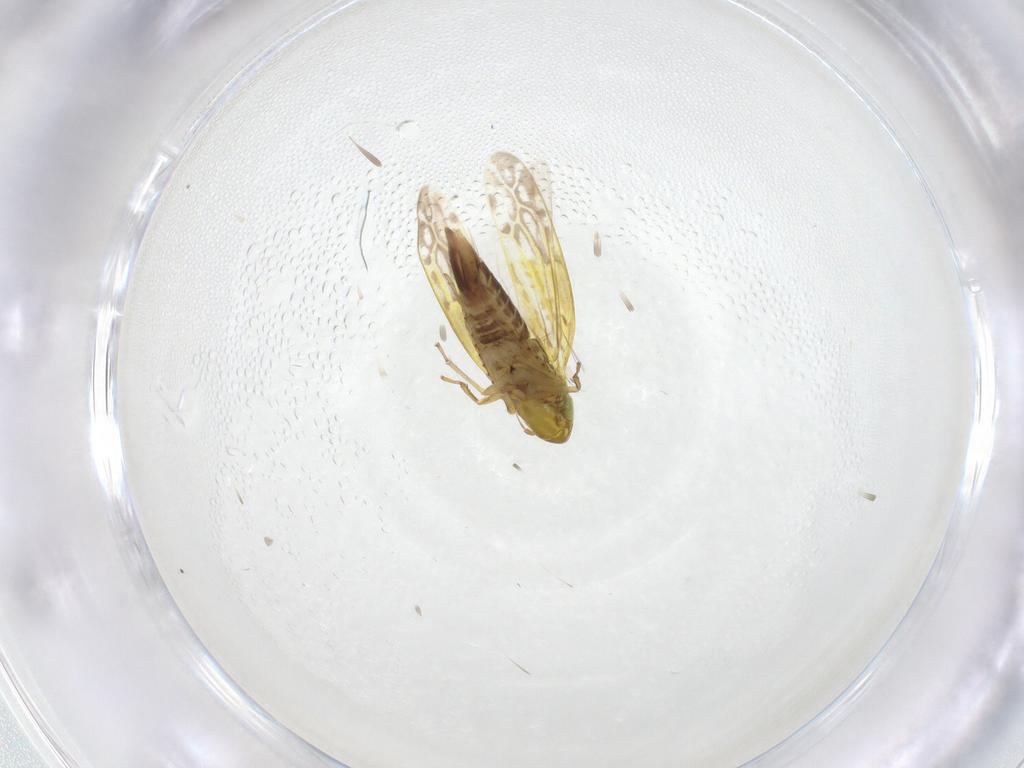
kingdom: Animalia
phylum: Arthropoda
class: Insecta
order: Hemiptera
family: Cicadellidae
